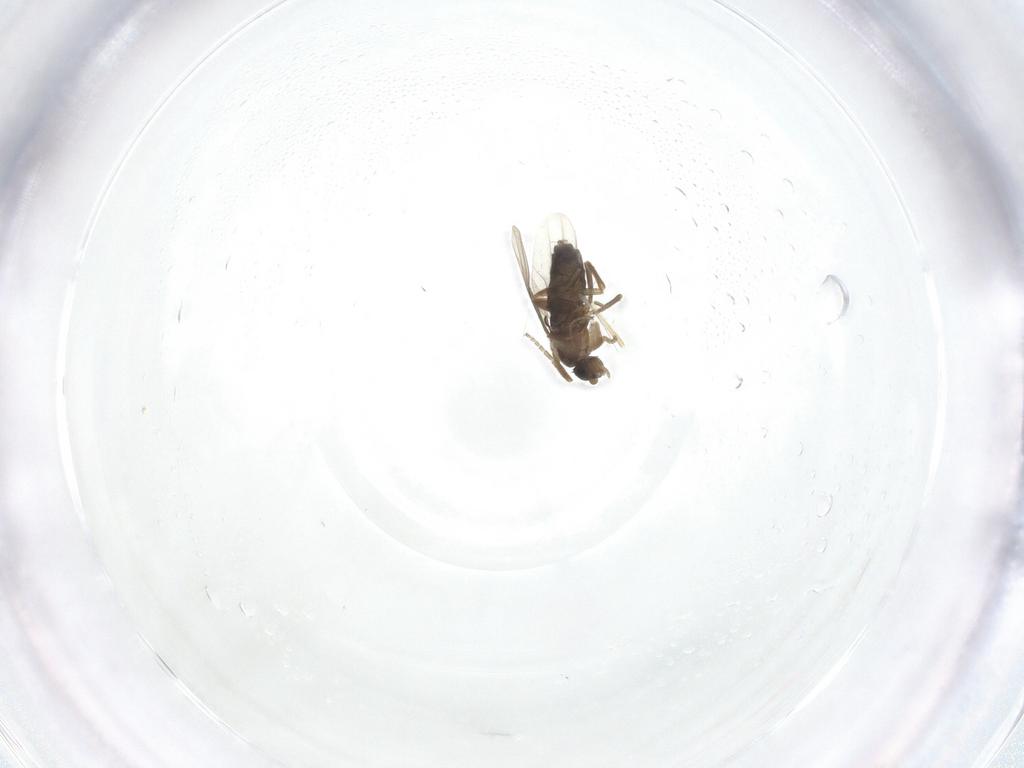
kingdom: Animalia
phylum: Arthropoda
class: Insecta
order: Diptera
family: Phoridae
